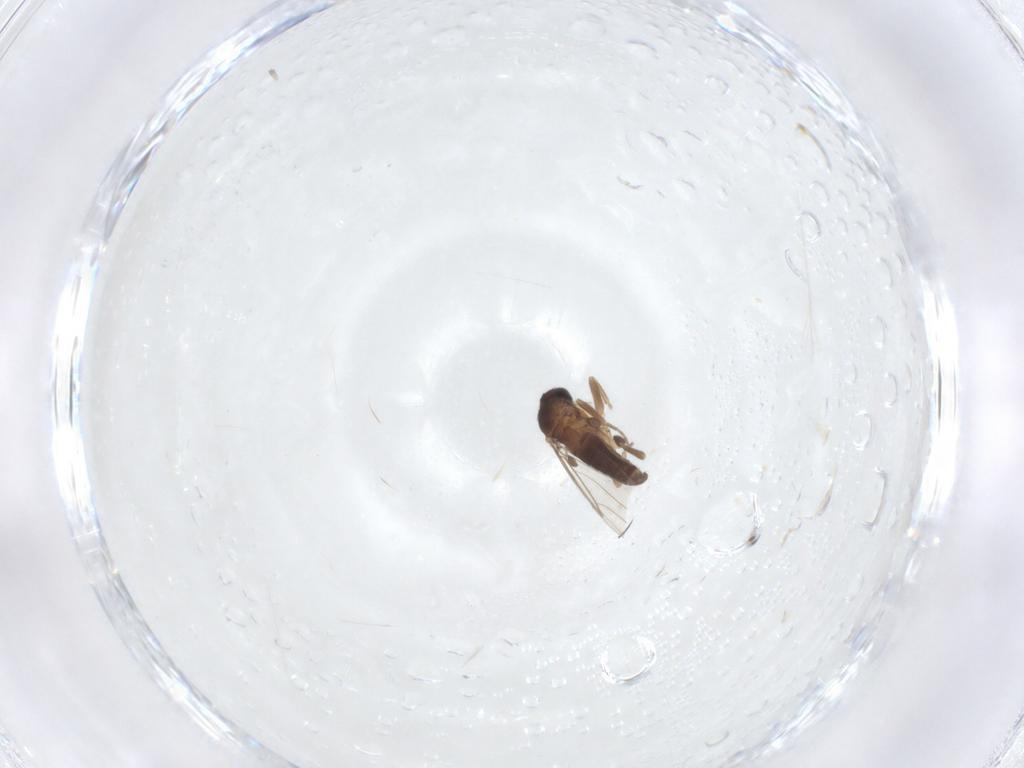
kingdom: Animalia
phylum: Arthropoda
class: Insecta
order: Diptera
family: Phoridae
